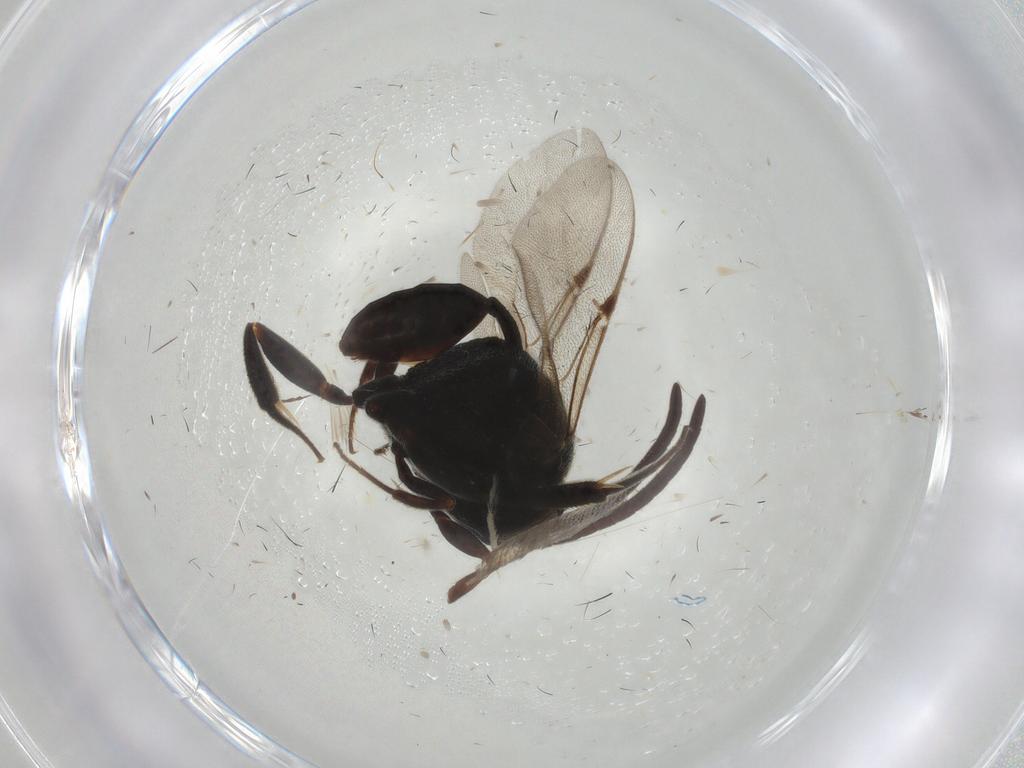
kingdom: Animalia
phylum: Arthropoda
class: Insecta
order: Hymenoptera
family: Evaniidae
